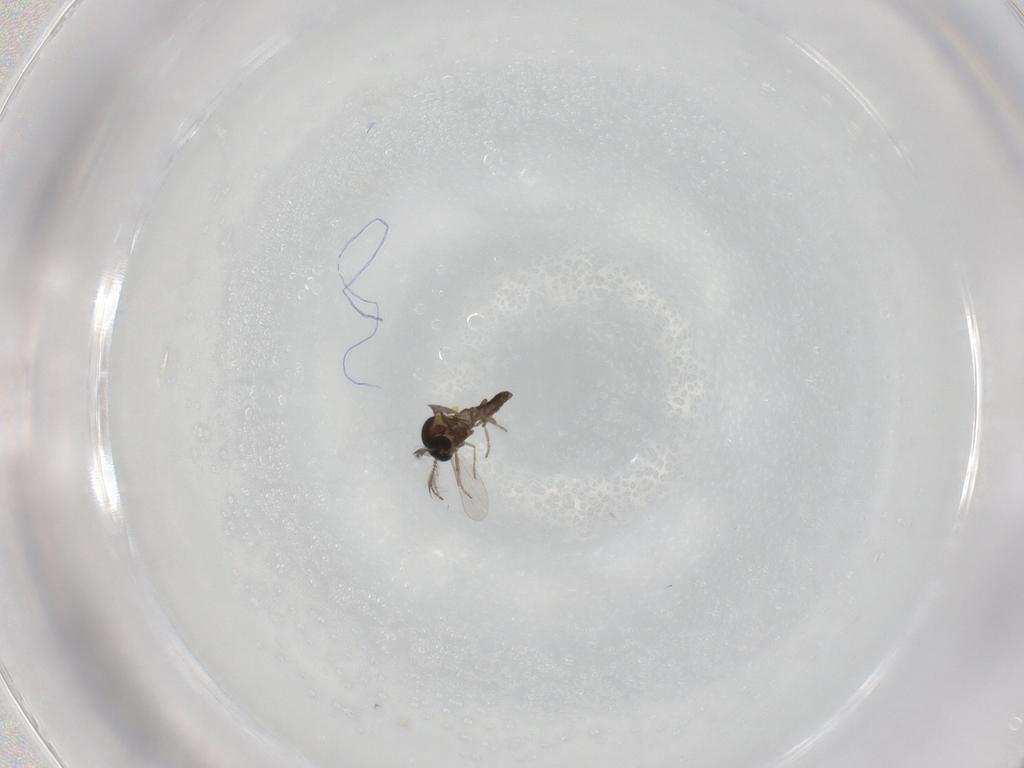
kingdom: Animalia
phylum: Arthropoda
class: Insecta
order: Diptera
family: Ceratopogonidae
